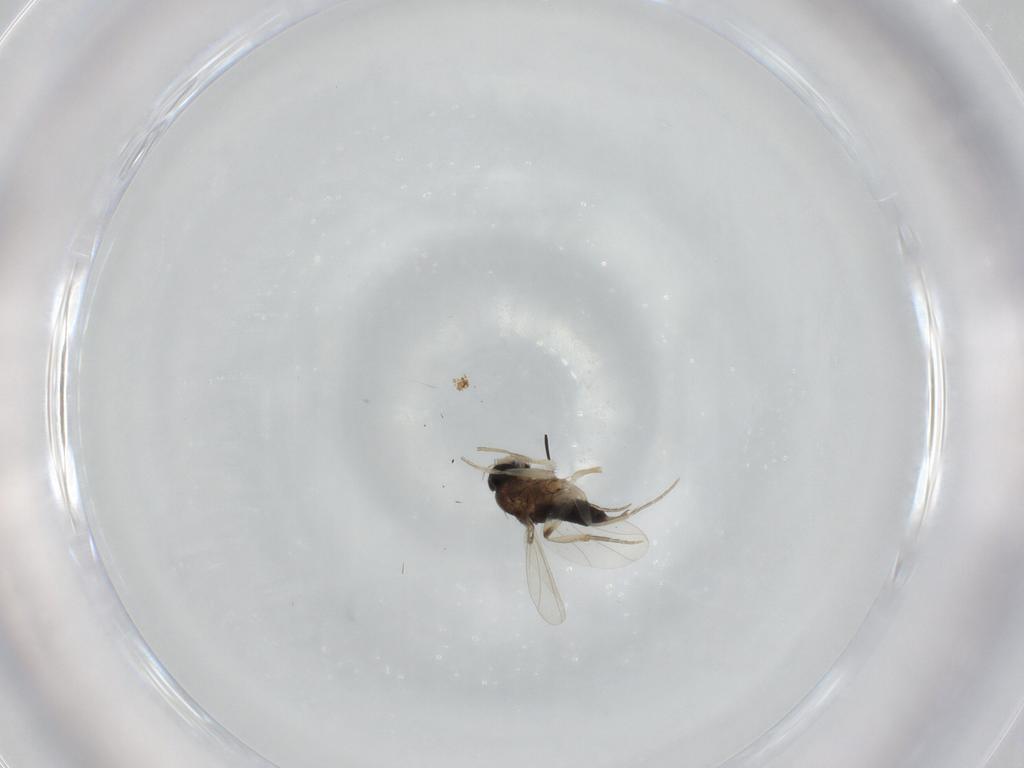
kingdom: Animalia
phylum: Arthropoda
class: Insecta
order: Diptera
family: Phoridae
